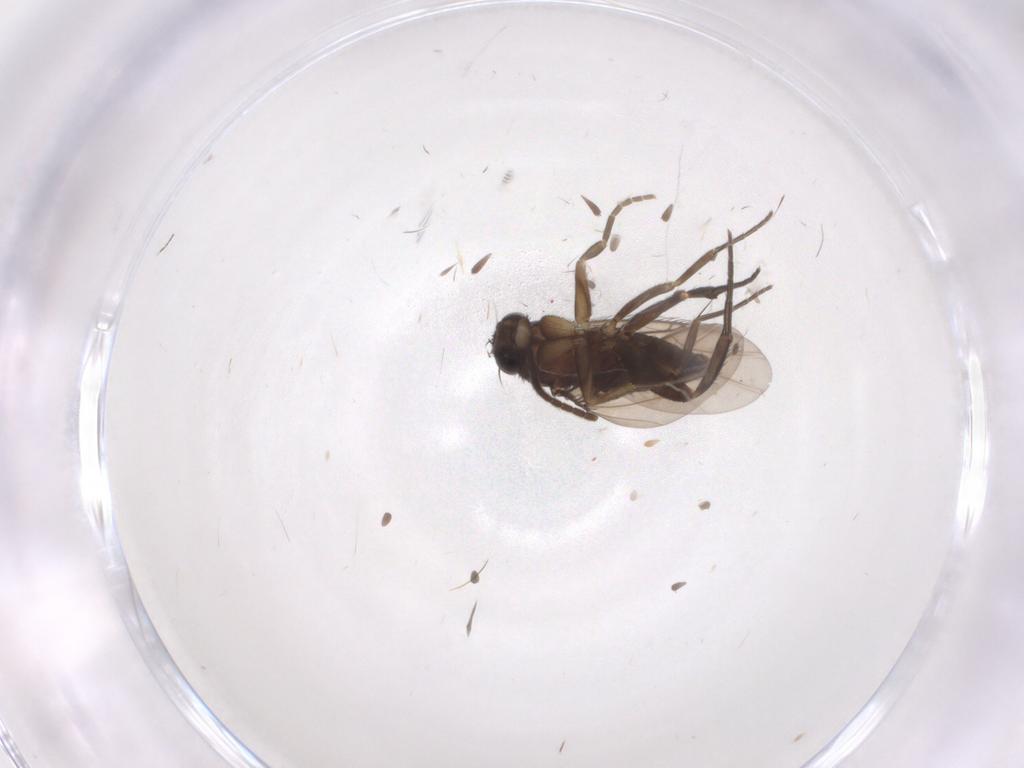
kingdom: Animalia
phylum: Arthropoda
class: Insecta
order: Diptera
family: Phoridae
